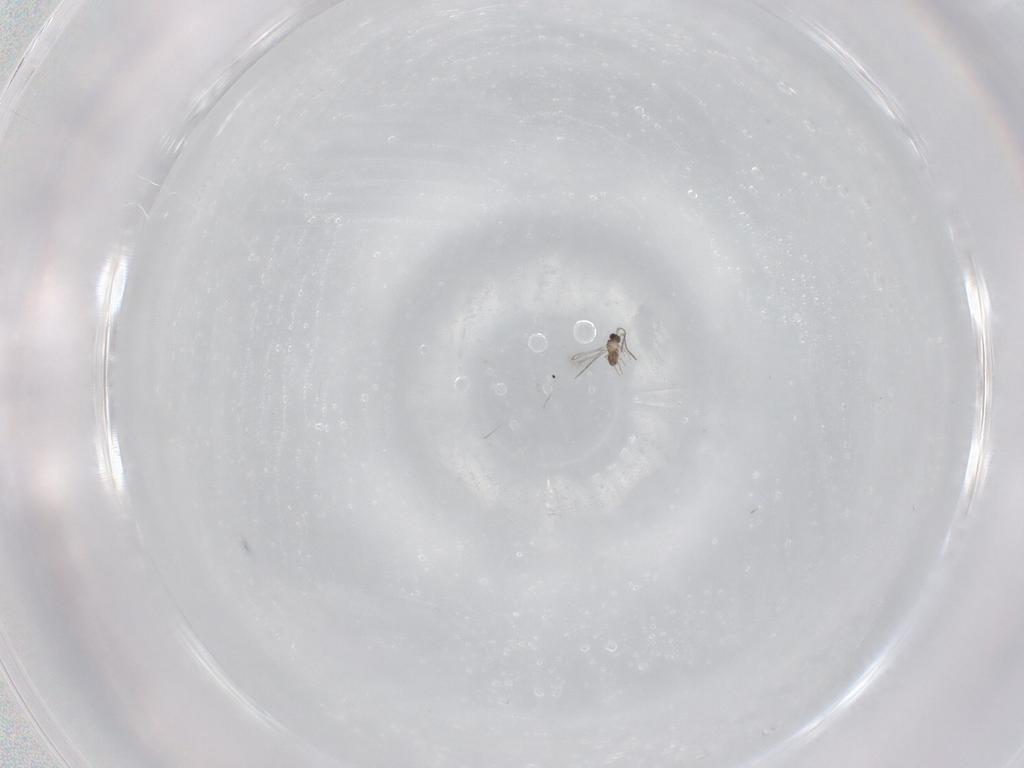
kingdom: Animalia
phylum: Arthropoda
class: Insecta
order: Hymenoptera
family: Mymaridae
